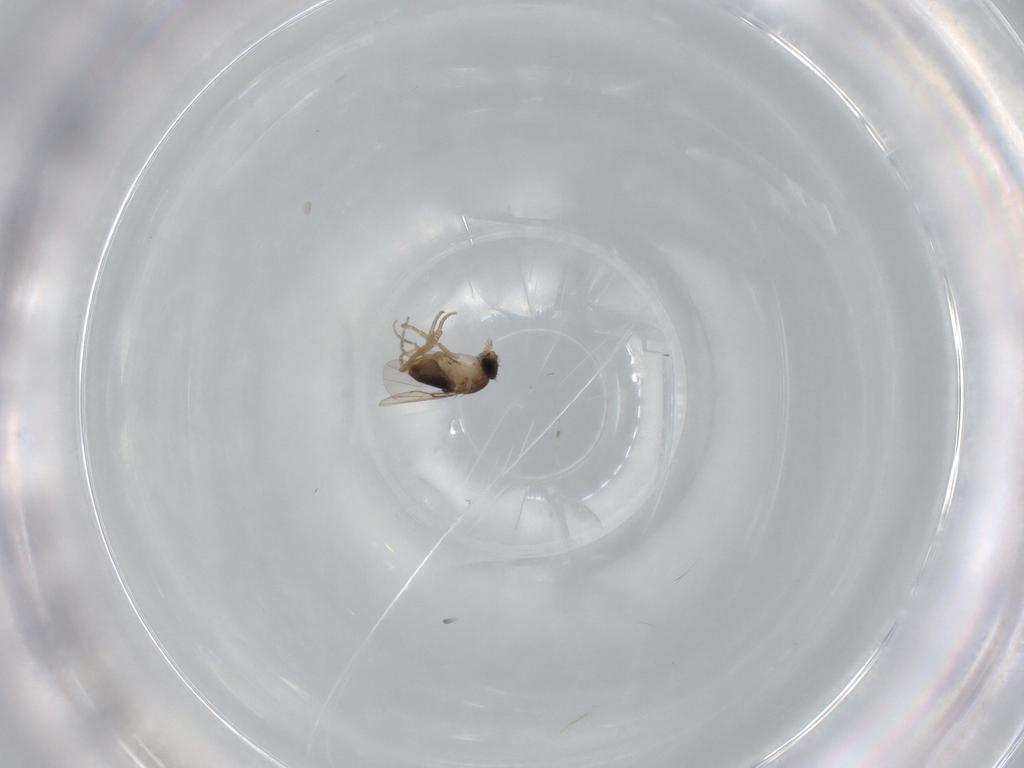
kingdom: Animalia
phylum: Arthropoda
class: Insecta
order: Diptera
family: Phoridae
